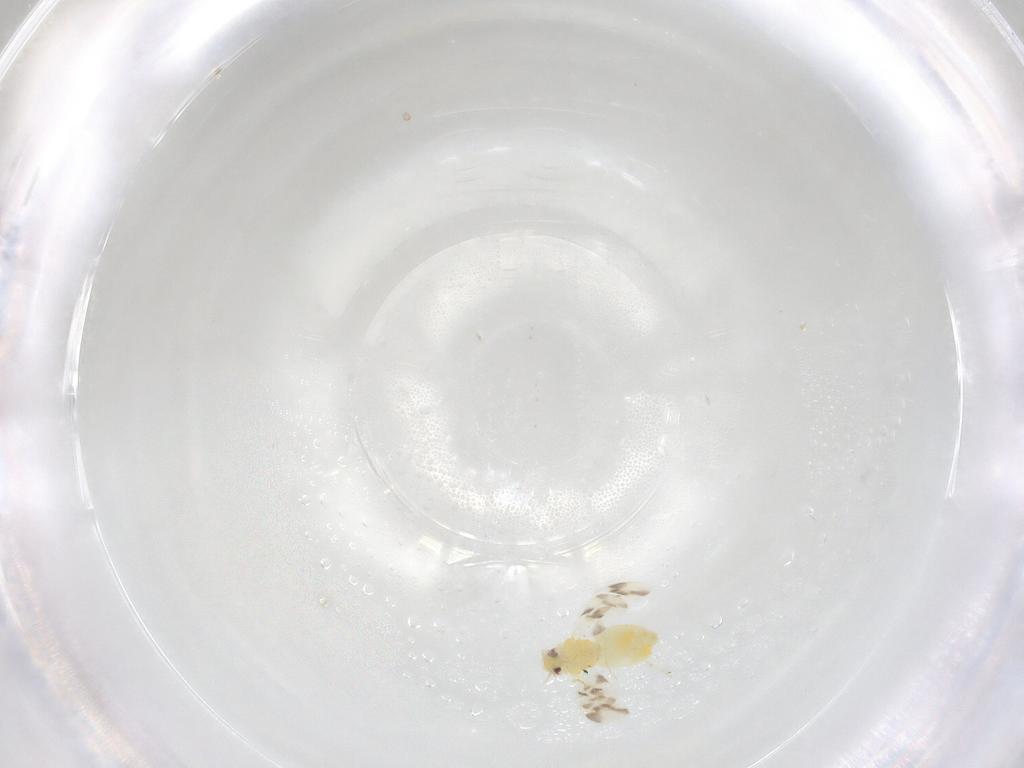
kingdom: Animalia
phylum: Arthropoda
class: Insecta
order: Hemiptera
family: Aleyrodidae
